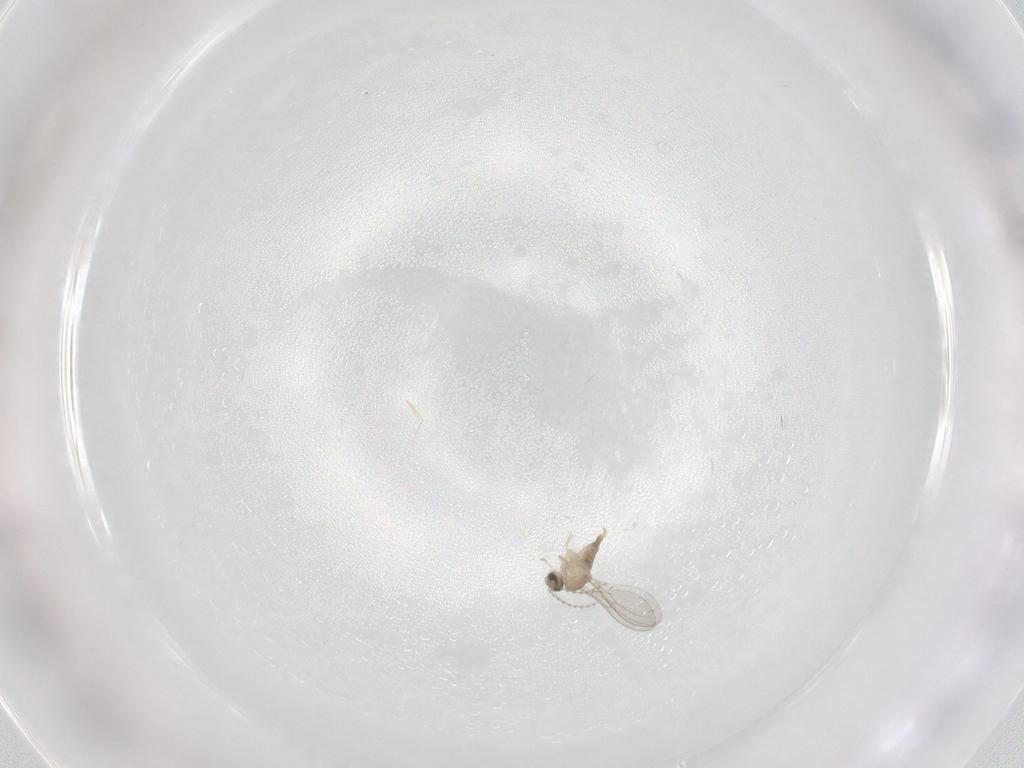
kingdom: Animalia
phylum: Arthropoda
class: Insecta
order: Diptera
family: Cecidomyiidae
